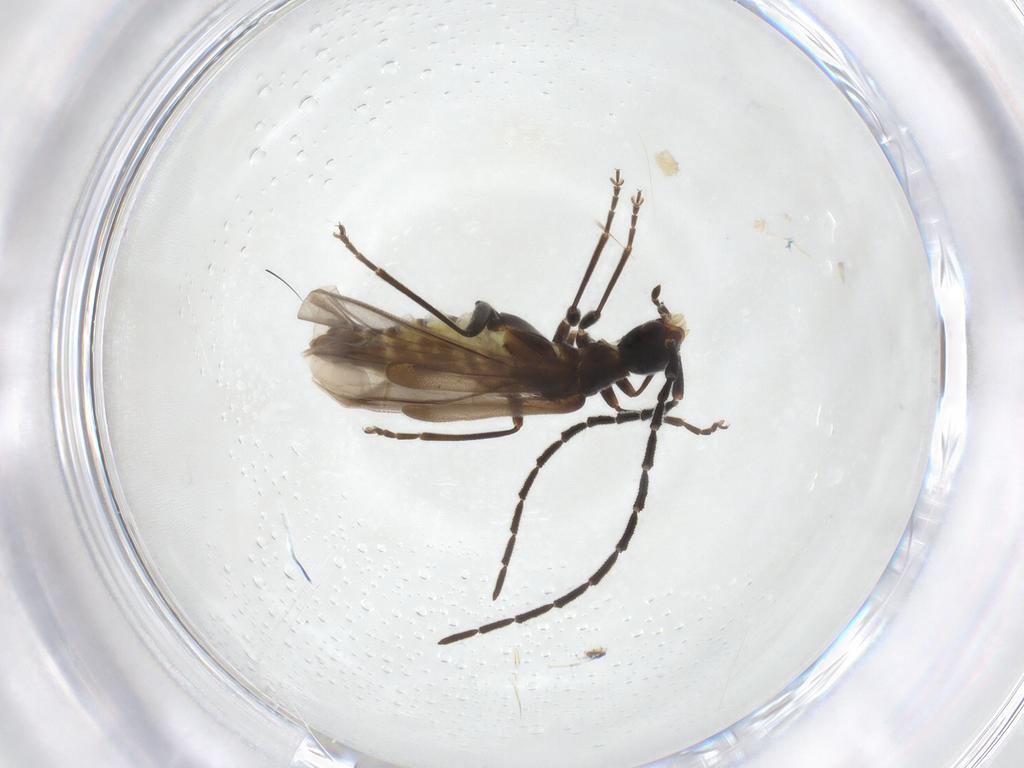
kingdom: Animalia
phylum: Arthropoda
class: Insecta
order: Coleoptera
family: Cantharidae
